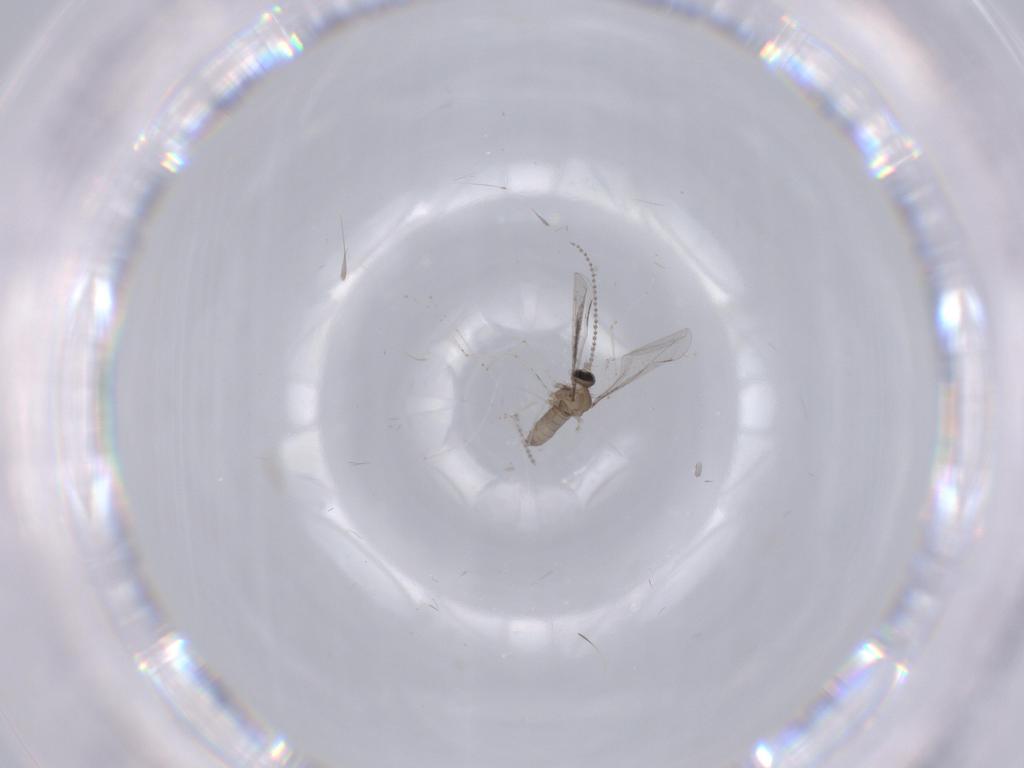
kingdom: Animalia
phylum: Arthropoda
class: Insecta
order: Diptera
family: Cecidomyiidae
